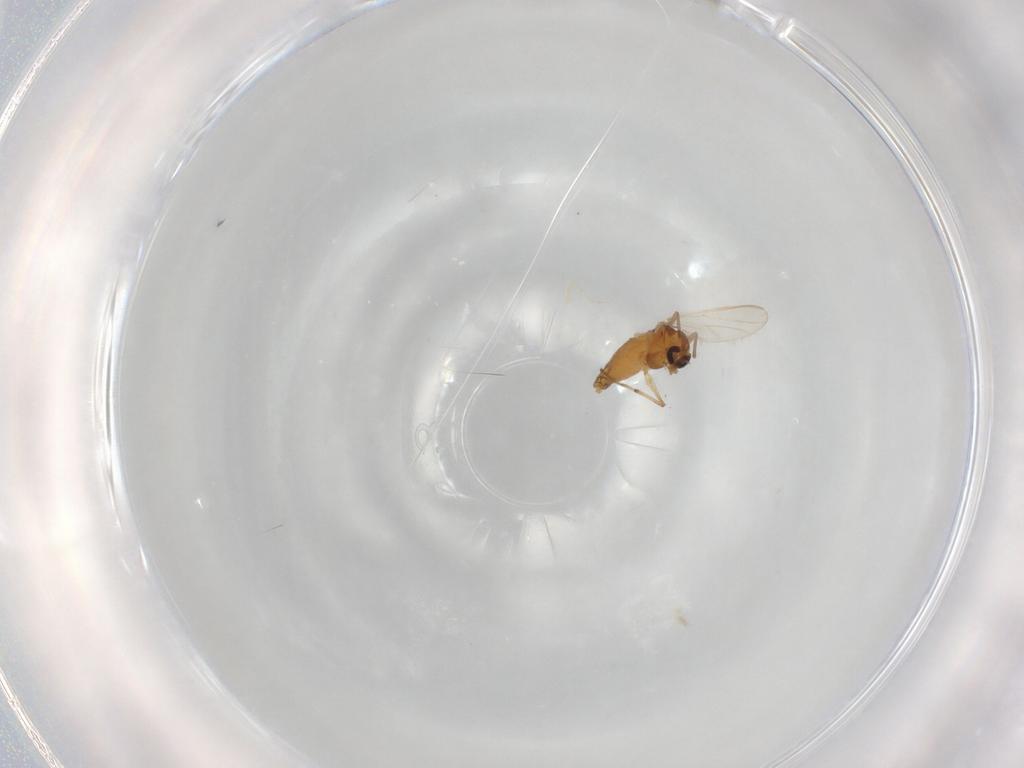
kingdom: Animalia
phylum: Arthropoda
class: Insecta
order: Diptera
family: Chironomidae
